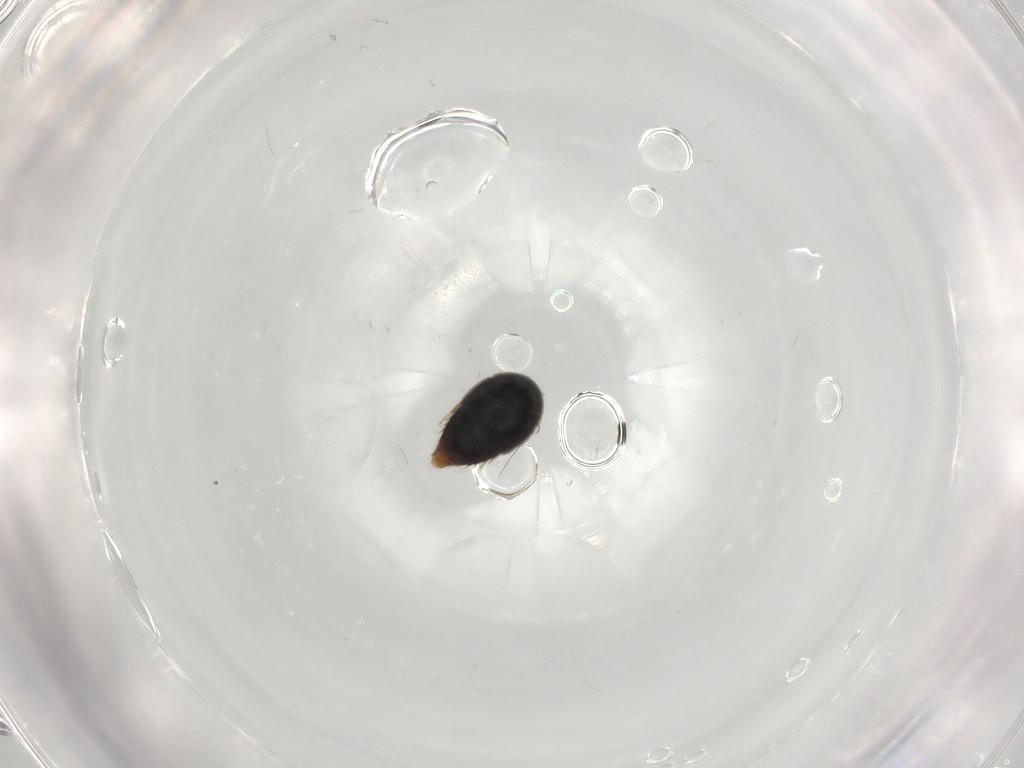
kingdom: Animalia
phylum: Arthropoda
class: Insecta
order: Coleoptera
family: Staphylinidae
